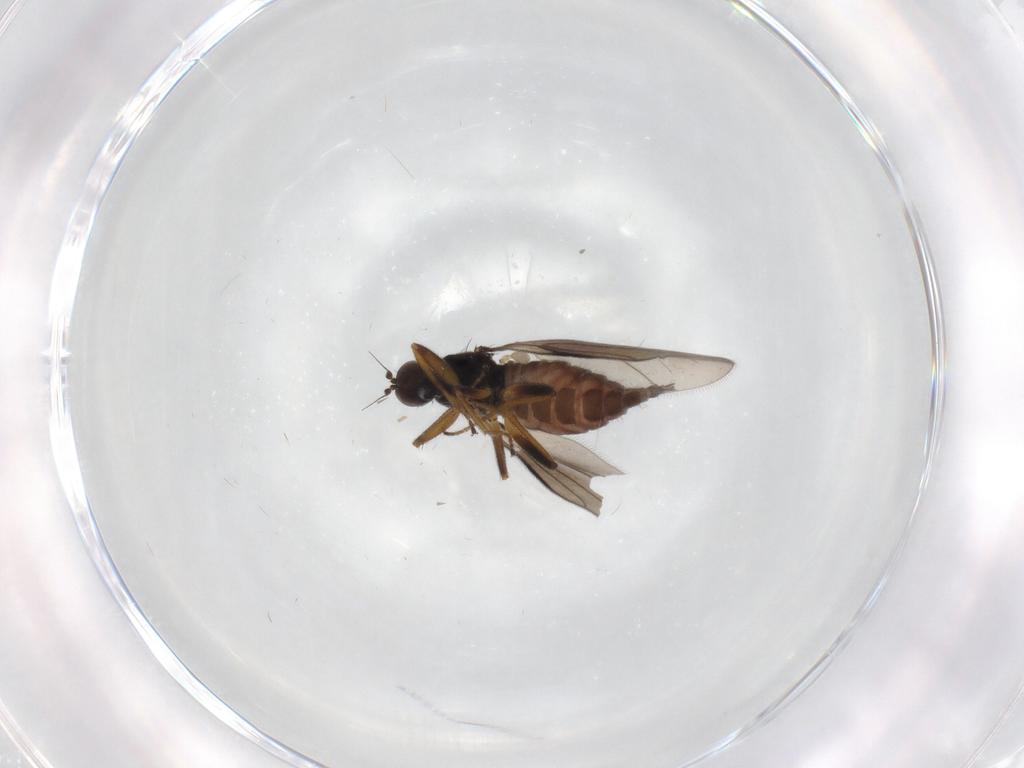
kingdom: Animalia
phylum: Arthropoda
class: Insecta
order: Diptera
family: Hybotidae
